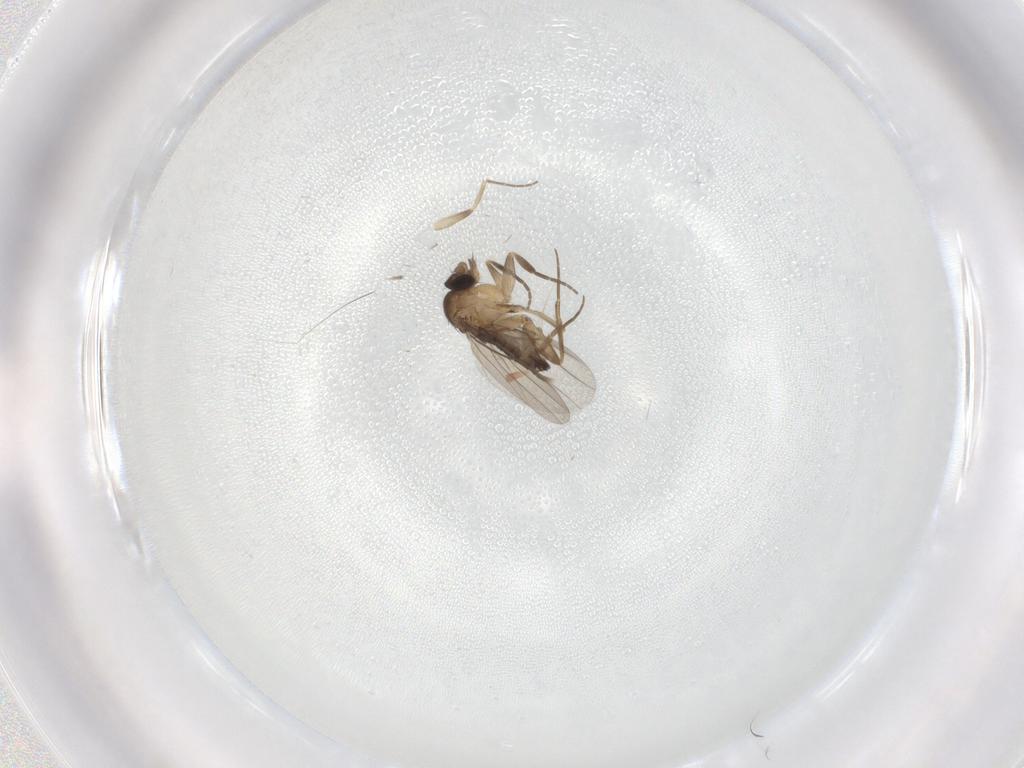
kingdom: Animalia
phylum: Arthropoda
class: Insecta
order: Diptera
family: Phoridae
